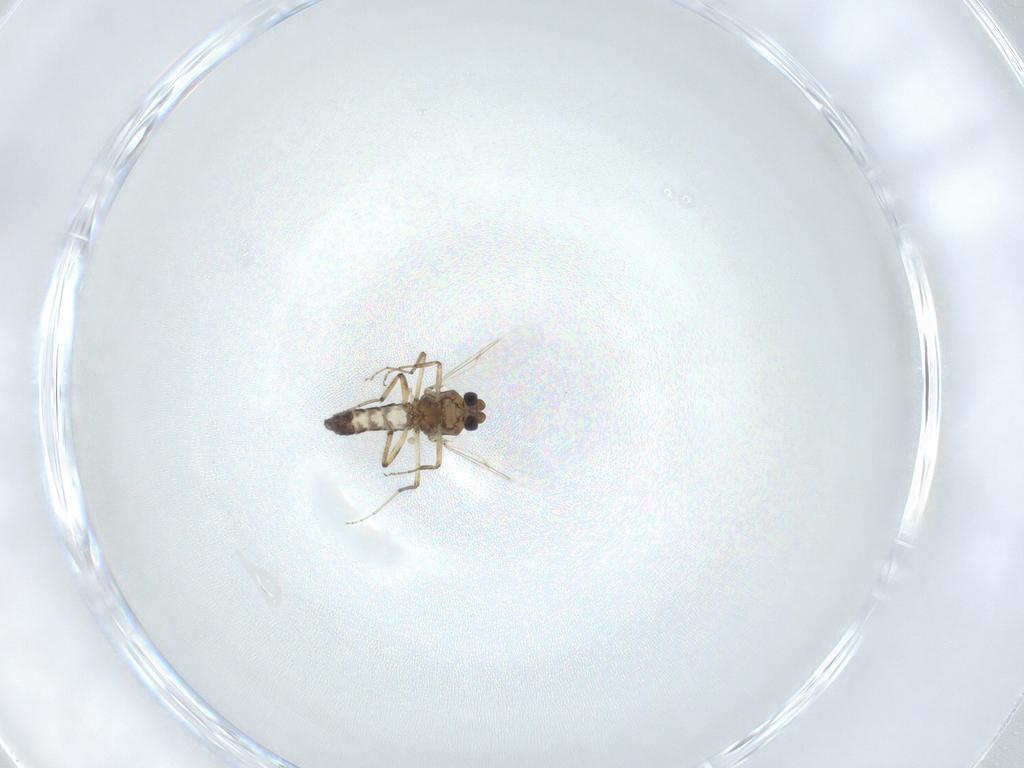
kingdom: Animalia
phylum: Arthropoda
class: Insecta
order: Diptera
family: Ceratopogonidae
